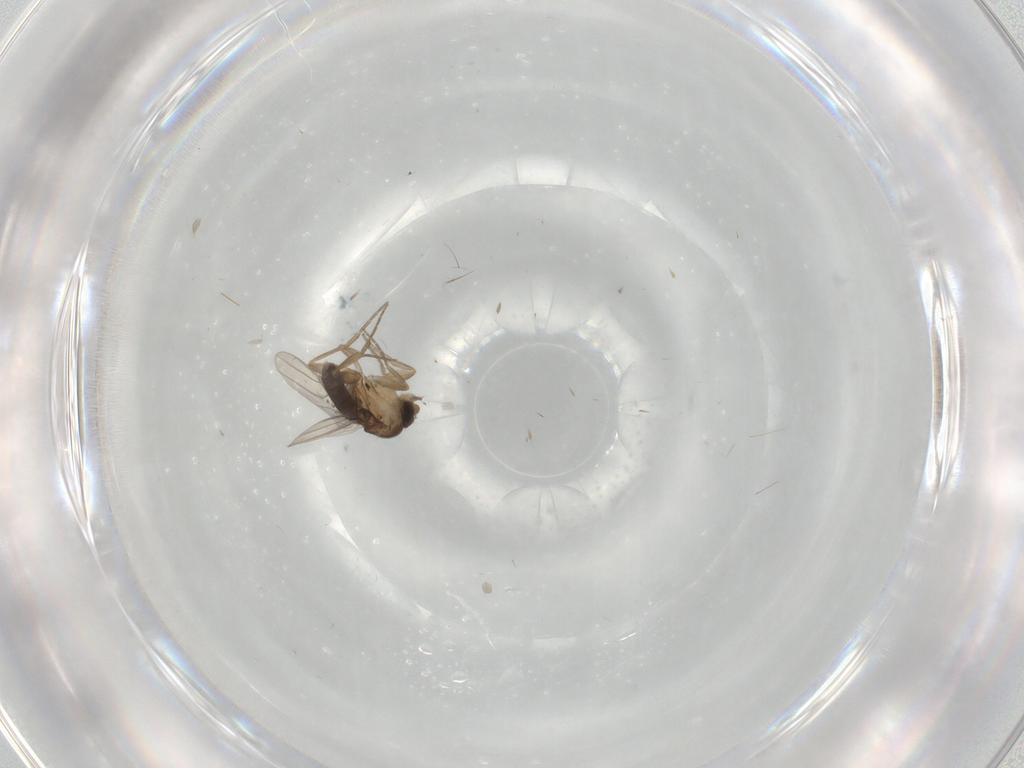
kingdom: Animalia
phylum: Arthropoda
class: Insecta
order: Diptera
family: Phoridae
